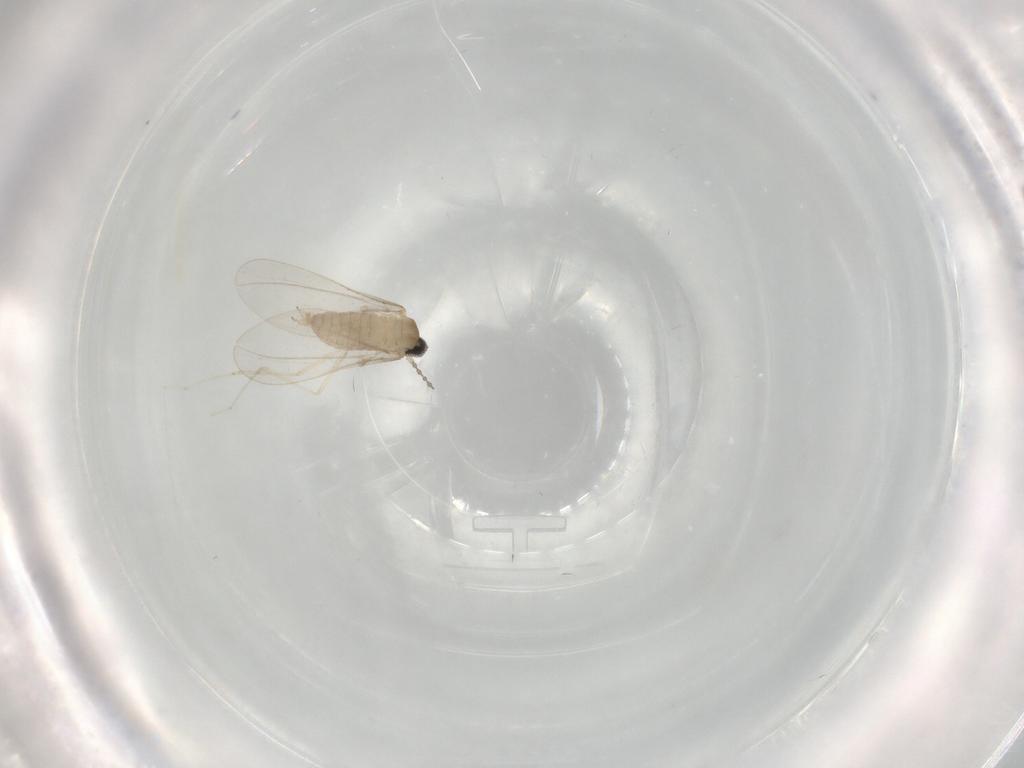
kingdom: Animalia
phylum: Arthropoda
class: Insecta
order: Diptera
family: Cecidomyiidae
